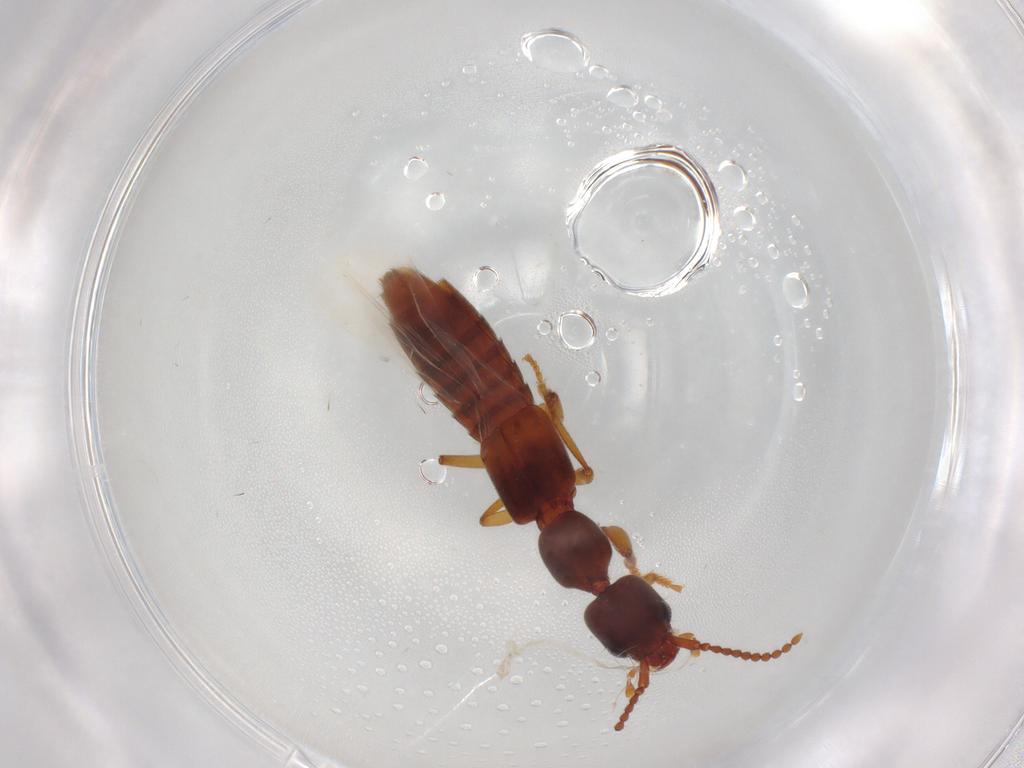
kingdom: Animalia
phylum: Arthropoda
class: Insecta
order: Coleoptera
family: Staphylinidae
